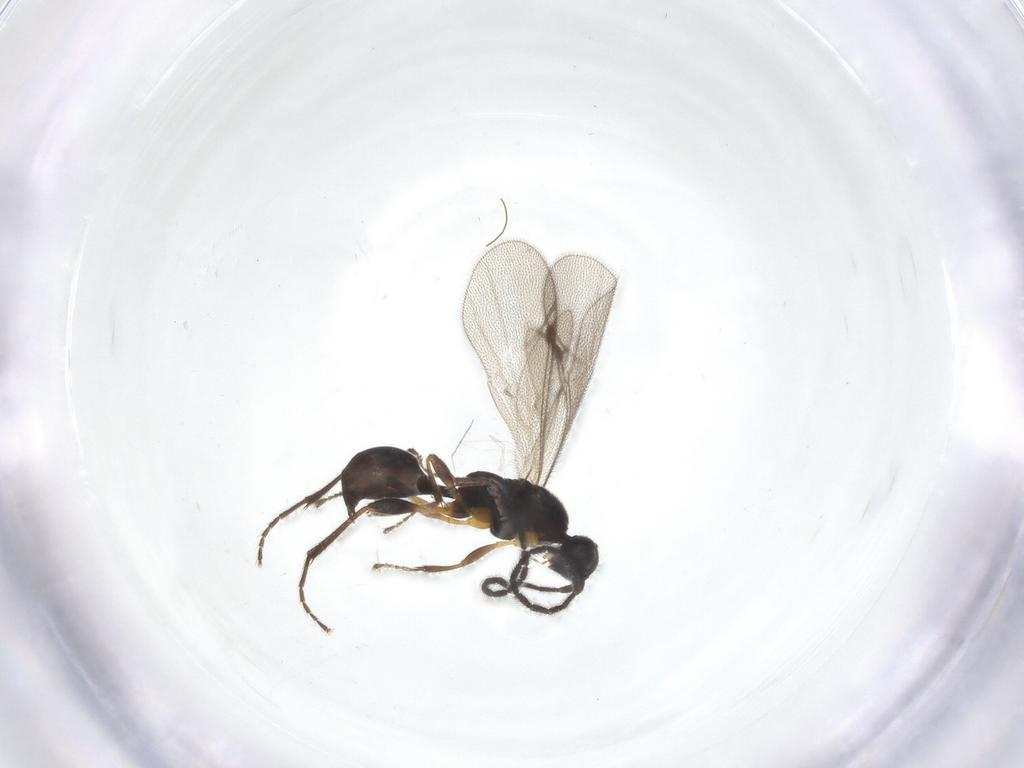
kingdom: Animalia
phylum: Arthropoda
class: Insecta
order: Hymenoptera
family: Proctotrupidae
